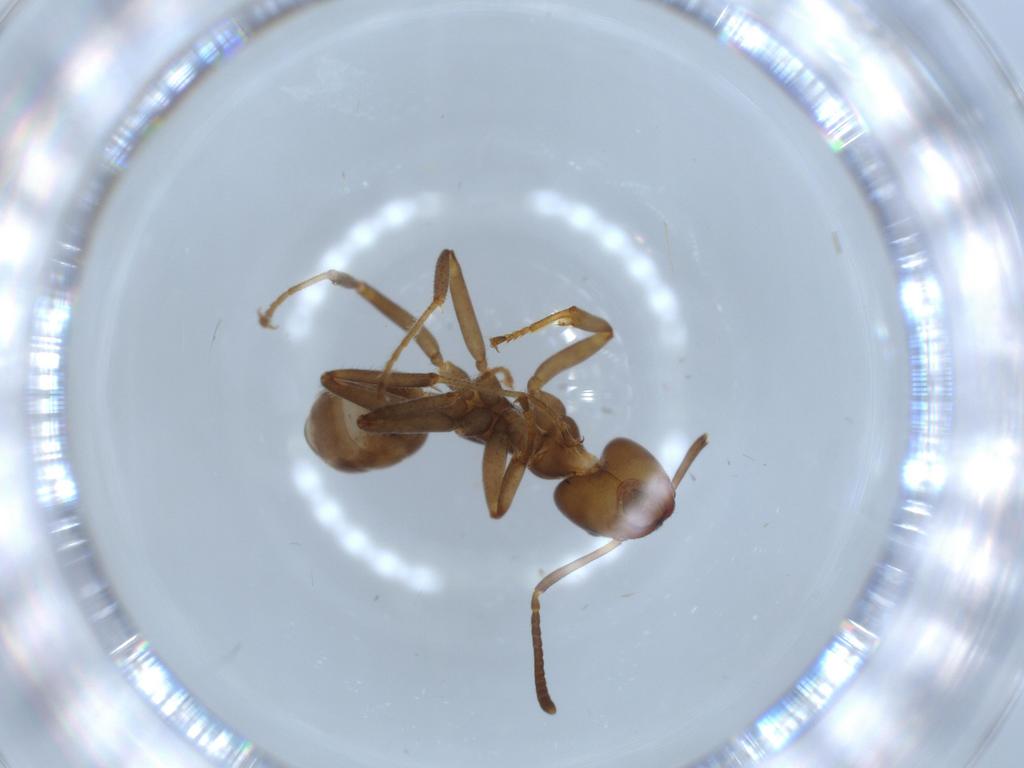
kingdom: Animalia
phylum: Arthropoda
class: Insecta
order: Hymenoptera
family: Formicidae
